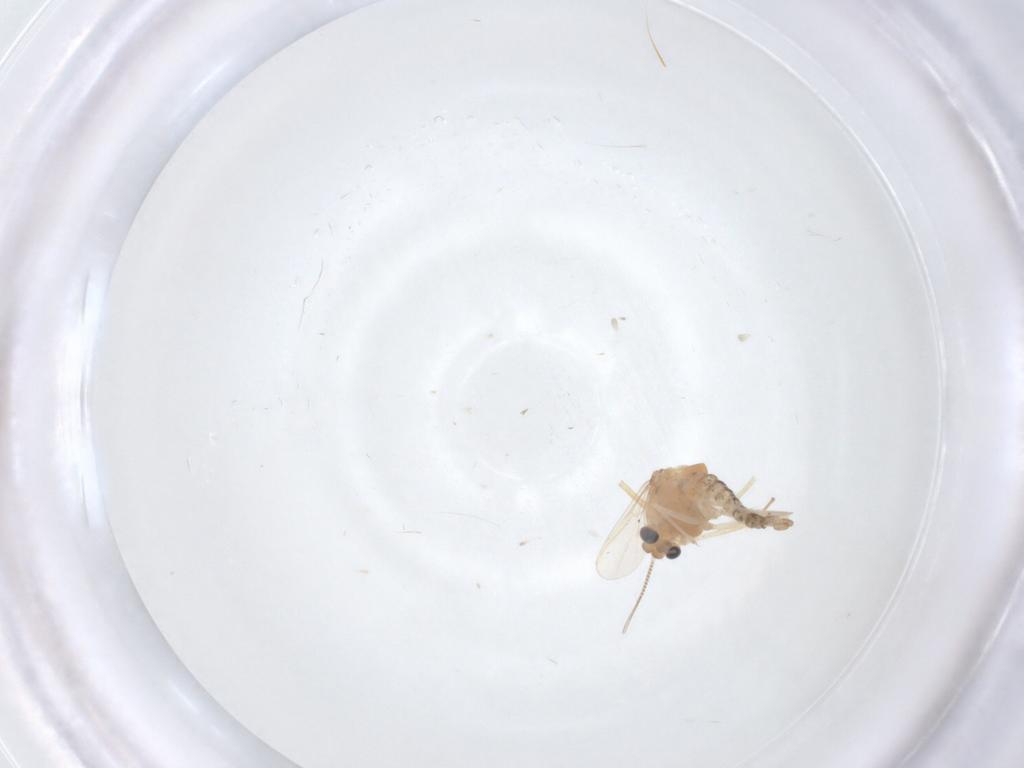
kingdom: Animalia
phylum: Arthropoda
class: Insecta
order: Diptera
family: Chironomidae
